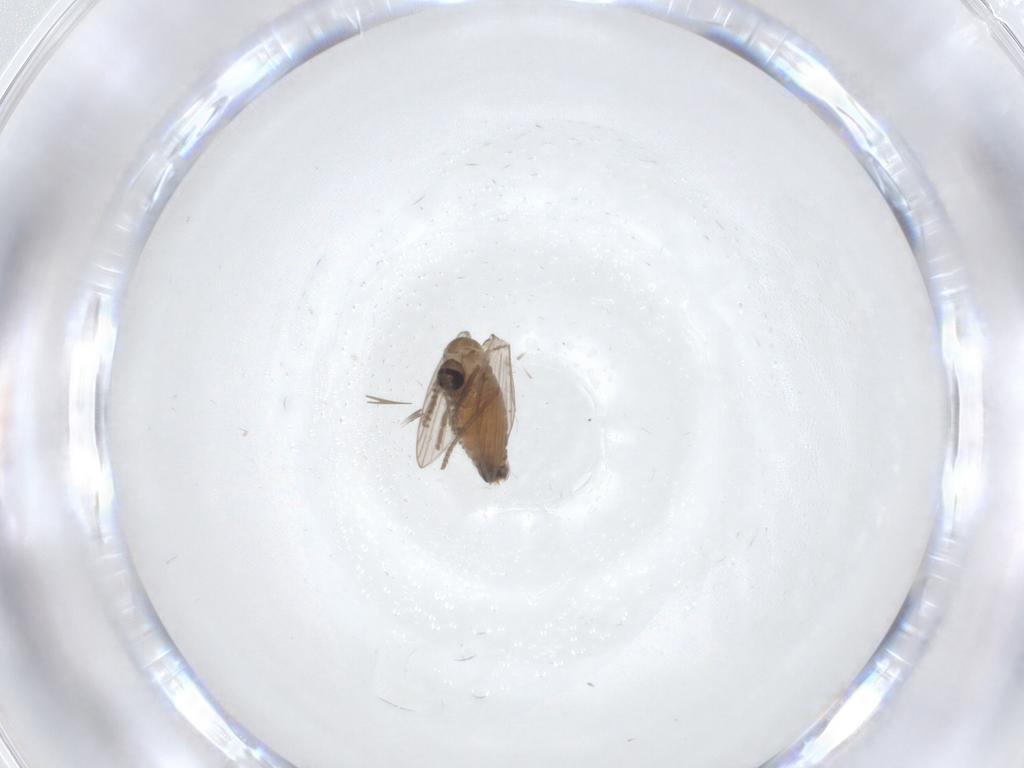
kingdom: Animalia
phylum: Arthropoda
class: Insecta
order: Diptera
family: Psychodidae
